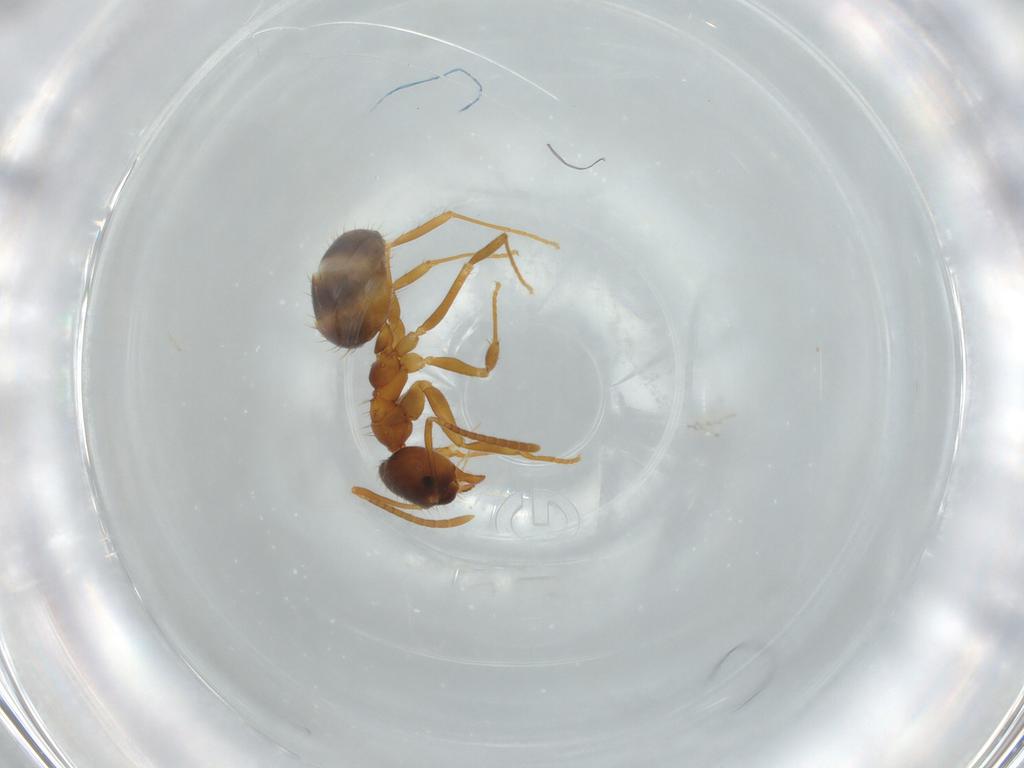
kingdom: Animalia
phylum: Arthropoda
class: Insecta
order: Hymenoptera
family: Formicidae
